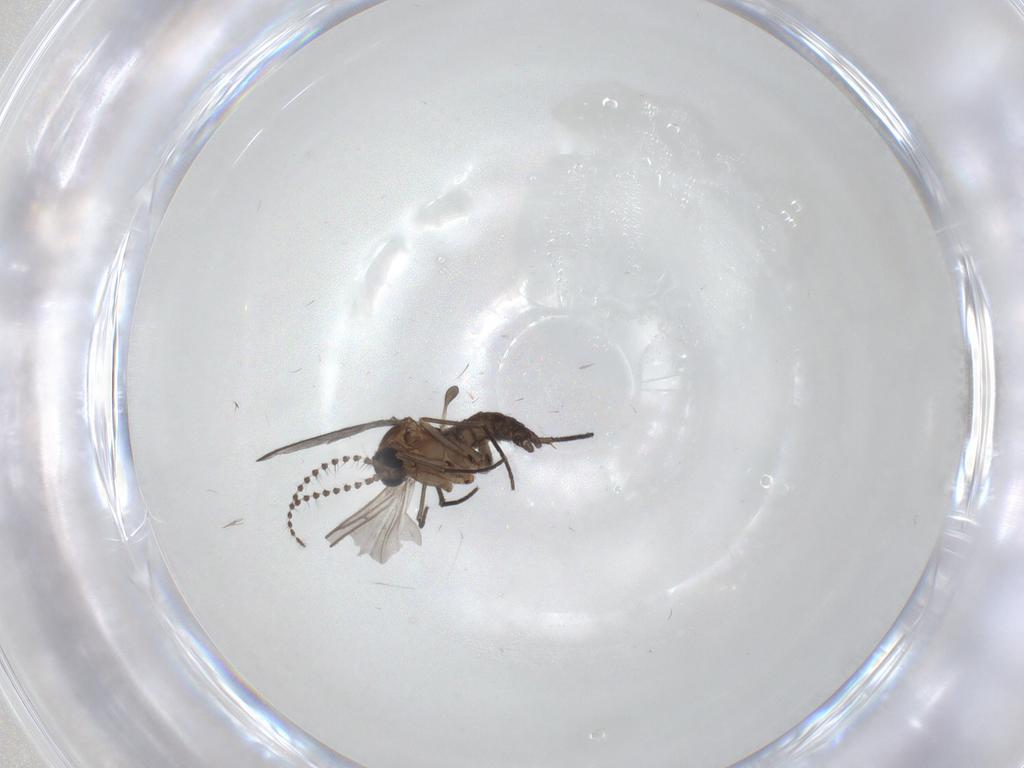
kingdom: Animalia
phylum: Arthropoda
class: Insecta
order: Diptera
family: Sciaridae
